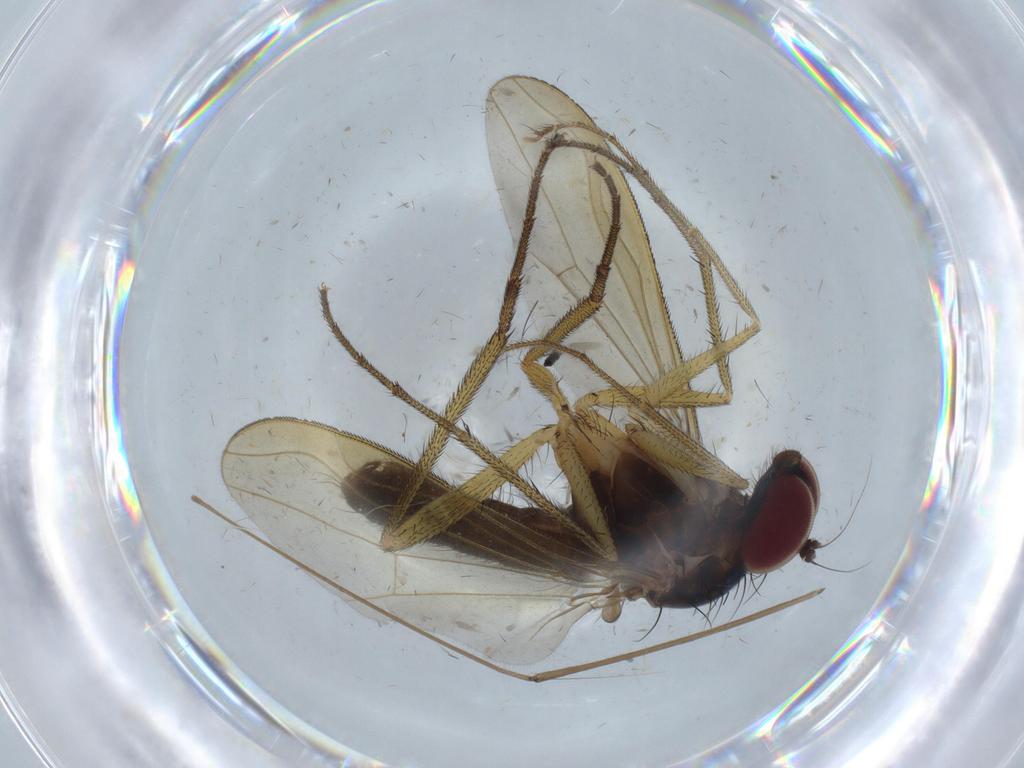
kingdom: Animalia
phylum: Arthropoda
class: Insecta
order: Diptera
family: Dolichopodidae
